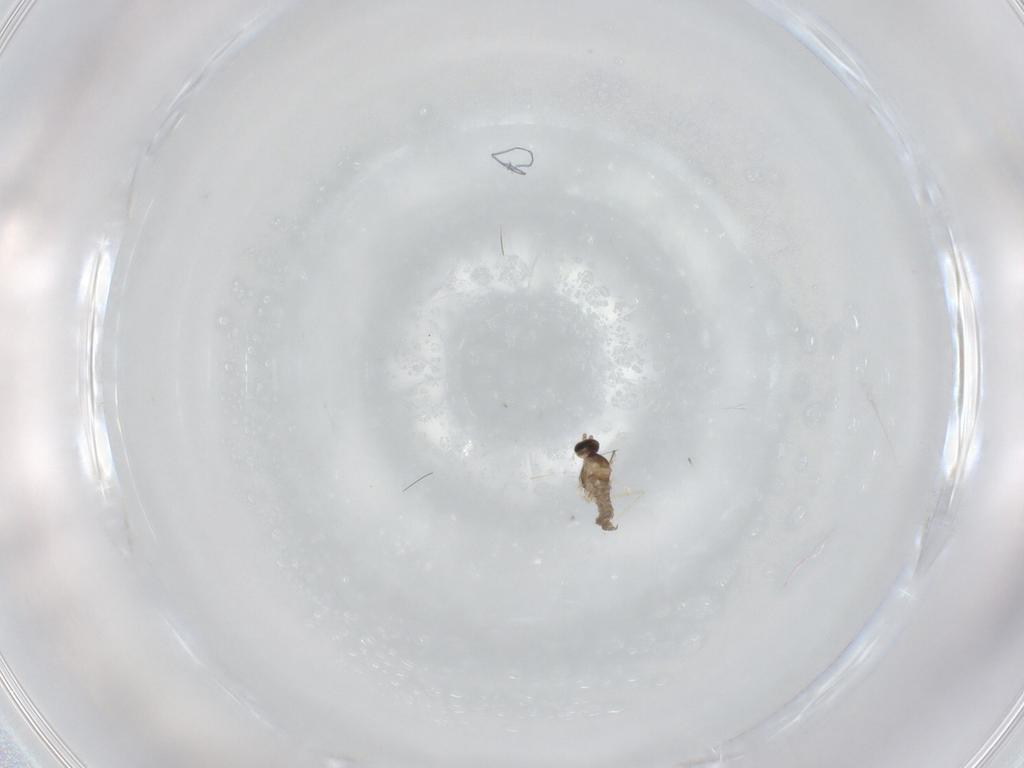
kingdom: Animalia
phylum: Arthropoda
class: Insecta
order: Diptera
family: Cecidomyiidae
